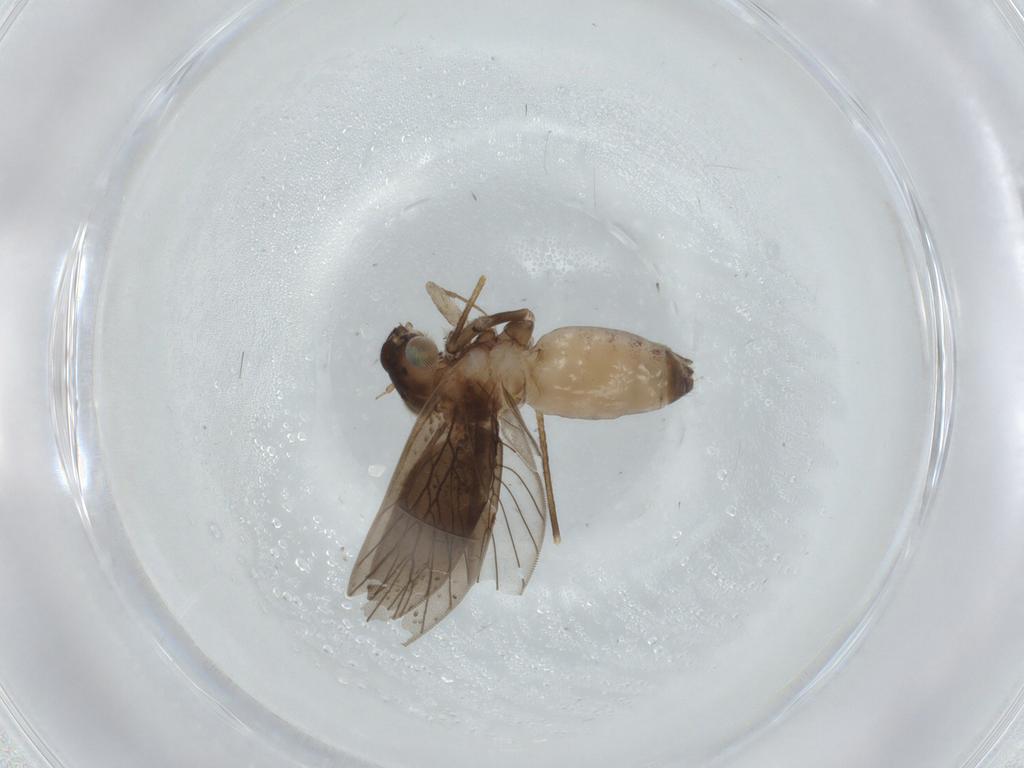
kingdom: Animalia
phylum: Arthropoda
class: Insecta
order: Psocodea
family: Lepidopsocidae
